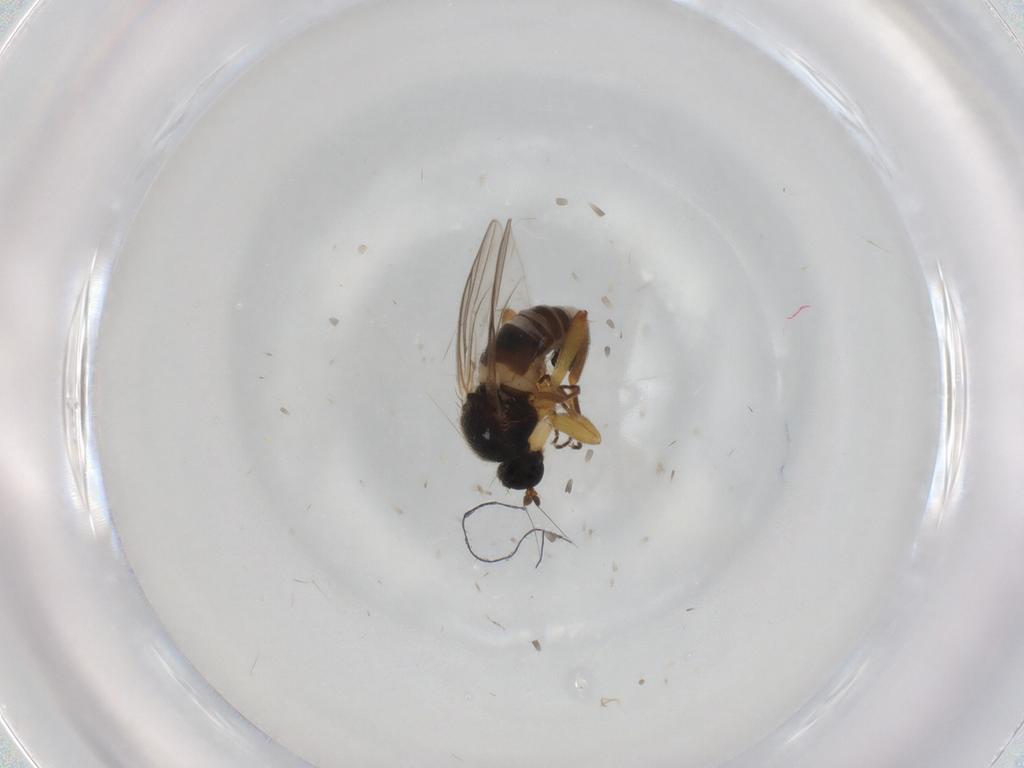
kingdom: Animalia
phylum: Arthropoda
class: Insecta
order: Diptera
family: Hybotidae
